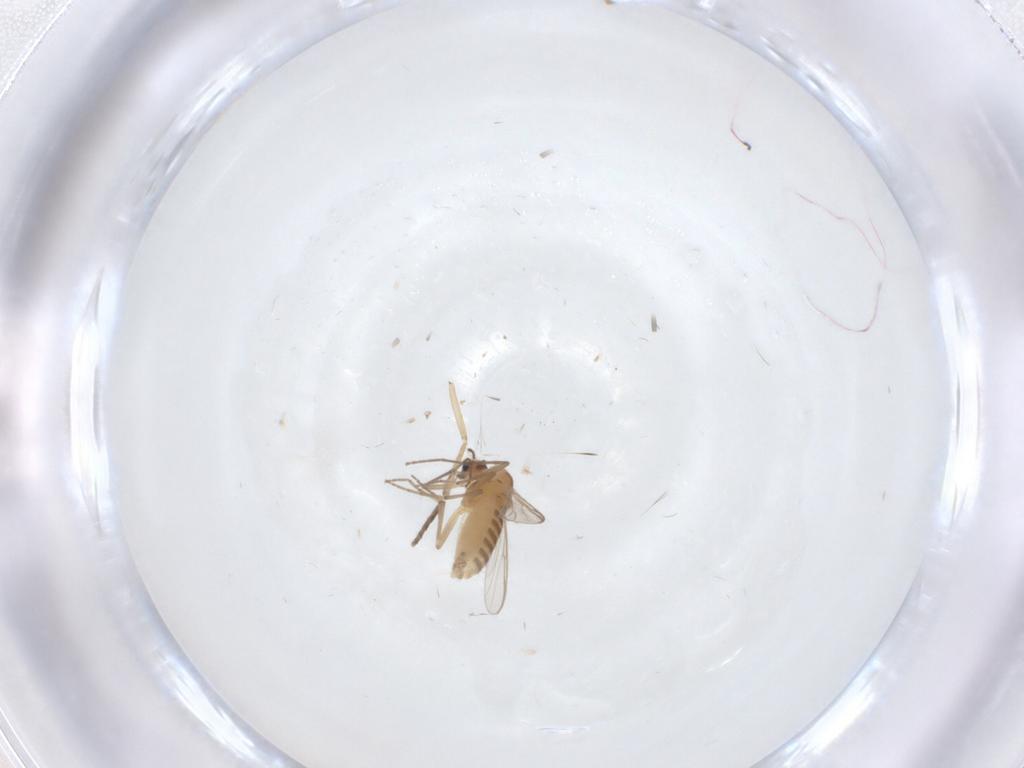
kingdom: Animalia
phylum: Arthropoda
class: Insecta
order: Diptera
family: Chironomidae
